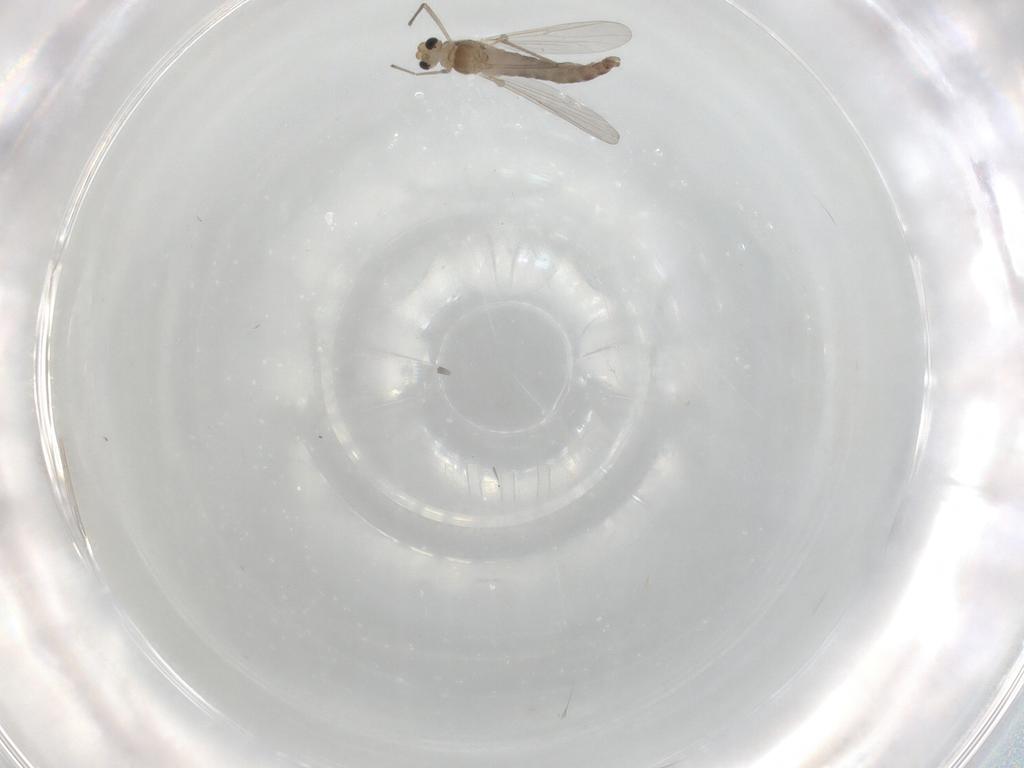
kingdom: Animalia
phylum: Arthropoda
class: Insecta
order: Diptera
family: Chironomidae
